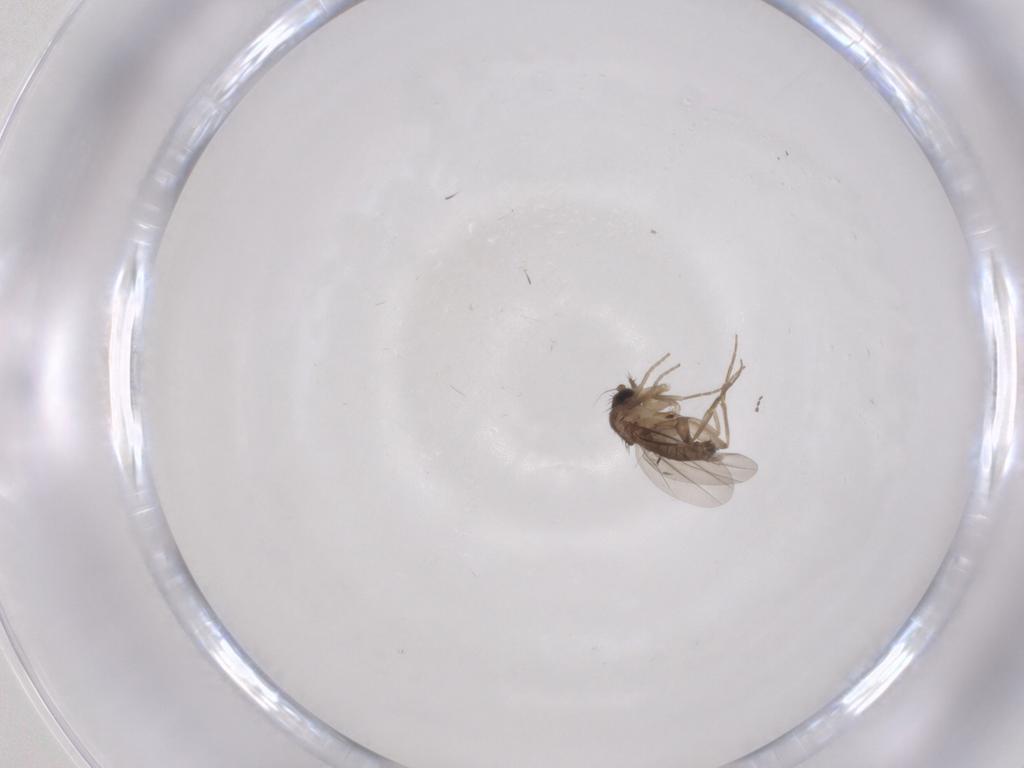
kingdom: Animalia
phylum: Arthropoda
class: Insecta
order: Diptera
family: Phoridae
